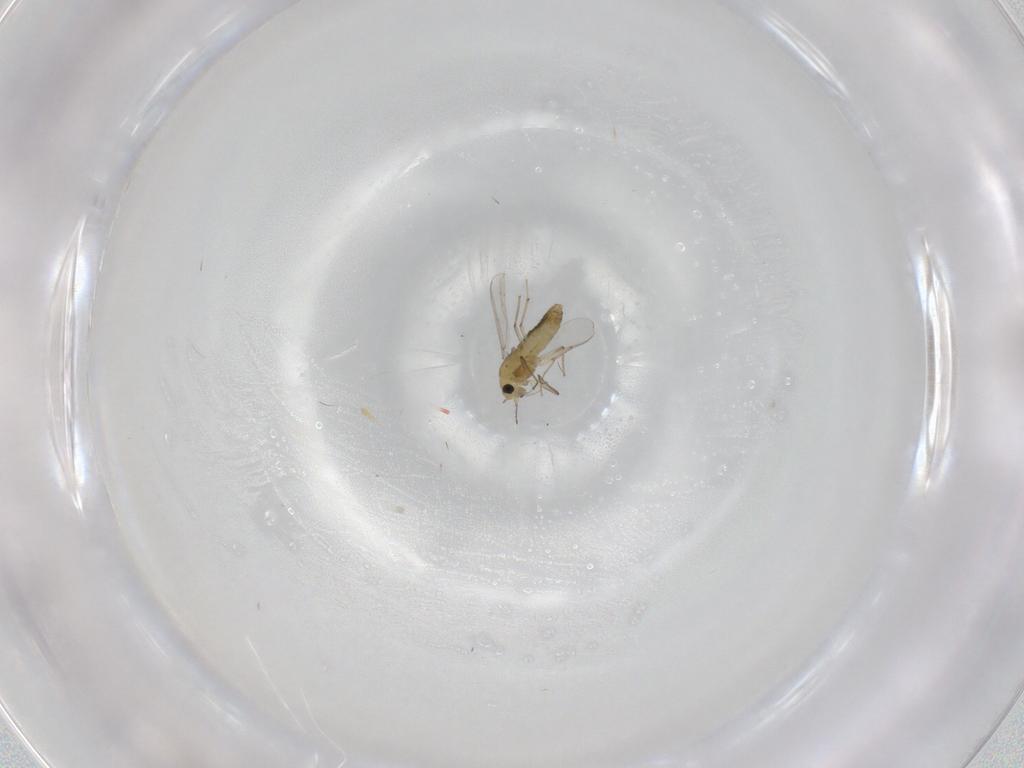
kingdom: Animalia
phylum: Arthropoda
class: Insecta
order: Diptera
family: Chironomidae
